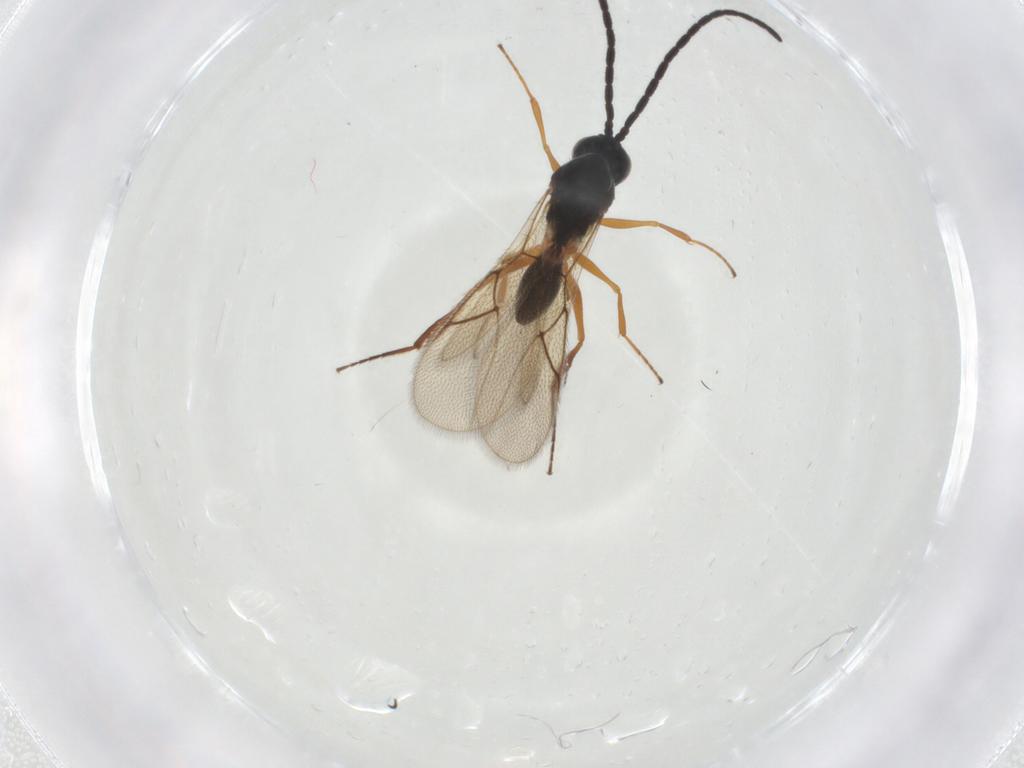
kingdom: Animalia
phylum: Arthropoda
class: Insecta
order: Hymenoptera
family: Figitidae
